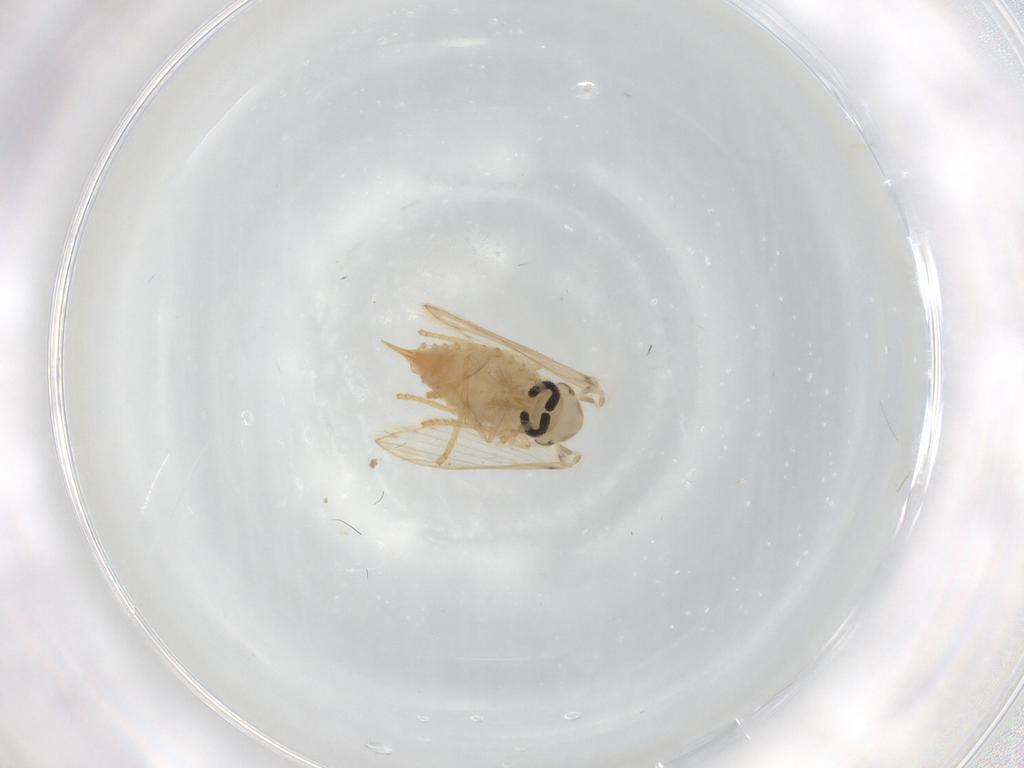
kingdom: Animalia
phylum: Arthropoda
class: Insecta
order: Diptera
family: Psychodidae
